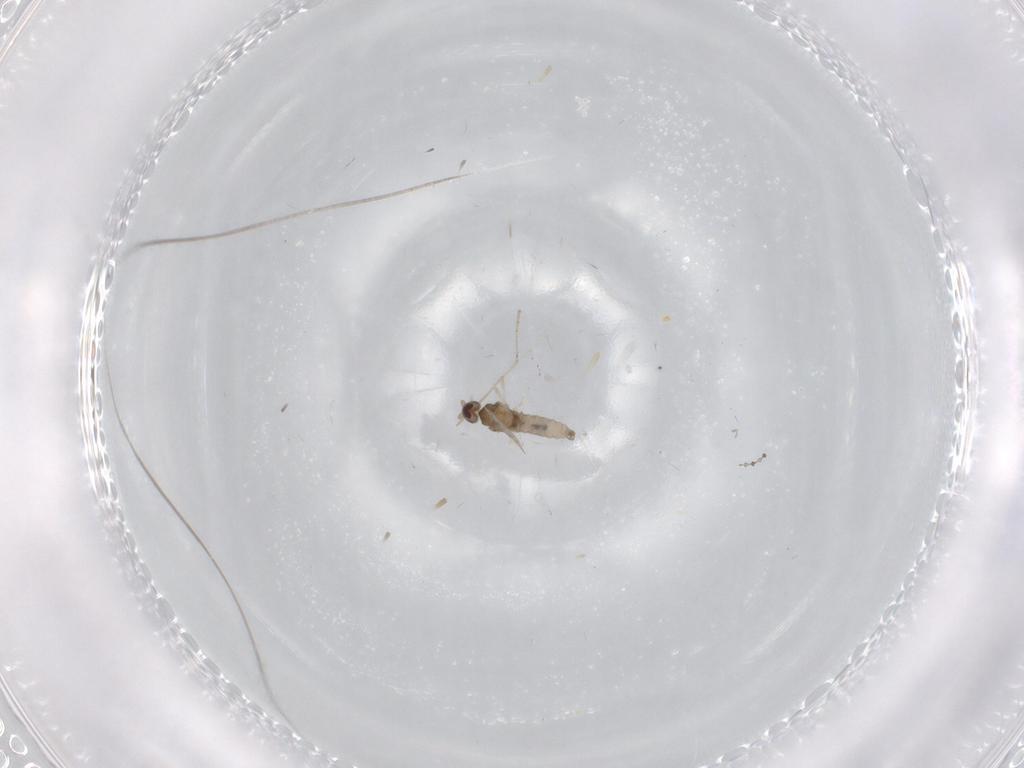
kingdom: Animalia
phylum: Arthropoda
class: Insecta
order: Diptera
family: Cecidomyiidae
